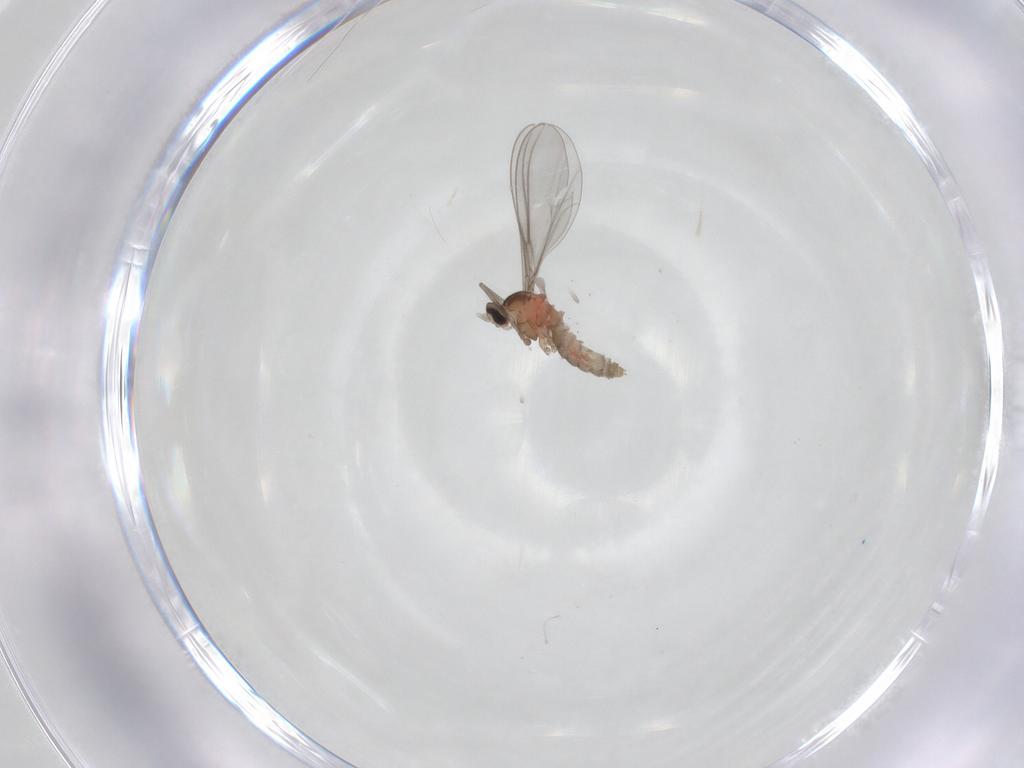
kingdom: Animalia
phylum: Arthropoda
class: Insecta
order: Diptera
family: Cecidomyiidae
